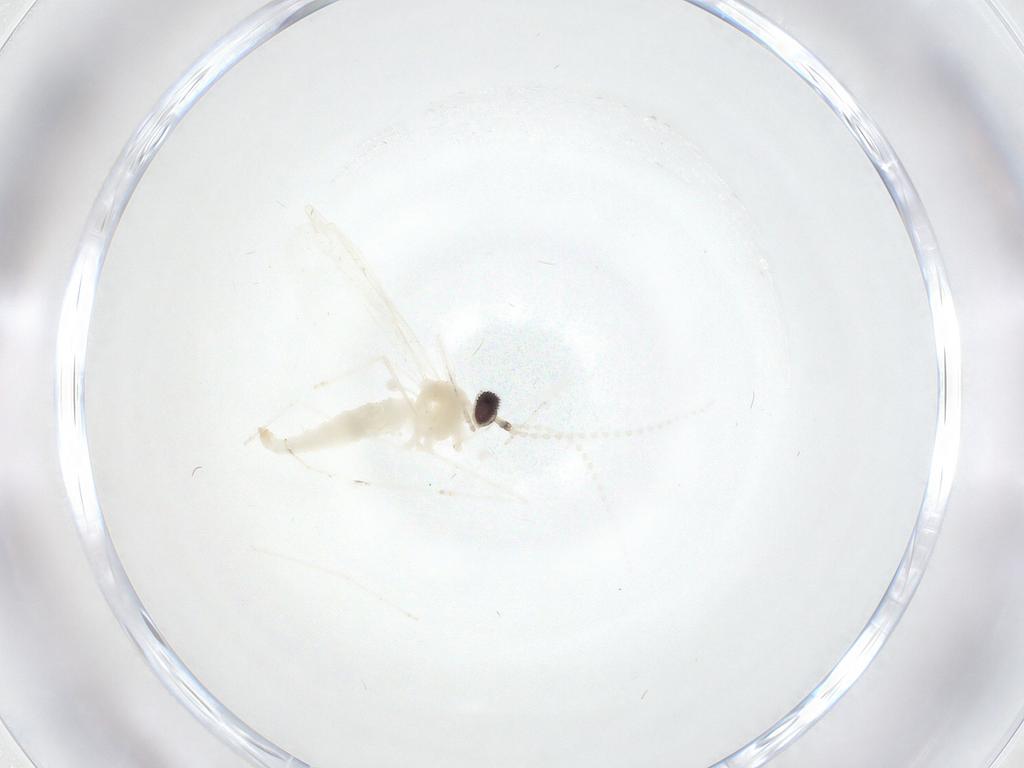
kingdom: Animalia
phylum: Arthropoda
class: Insecta
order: Diptera
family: Cecidomyiidae
